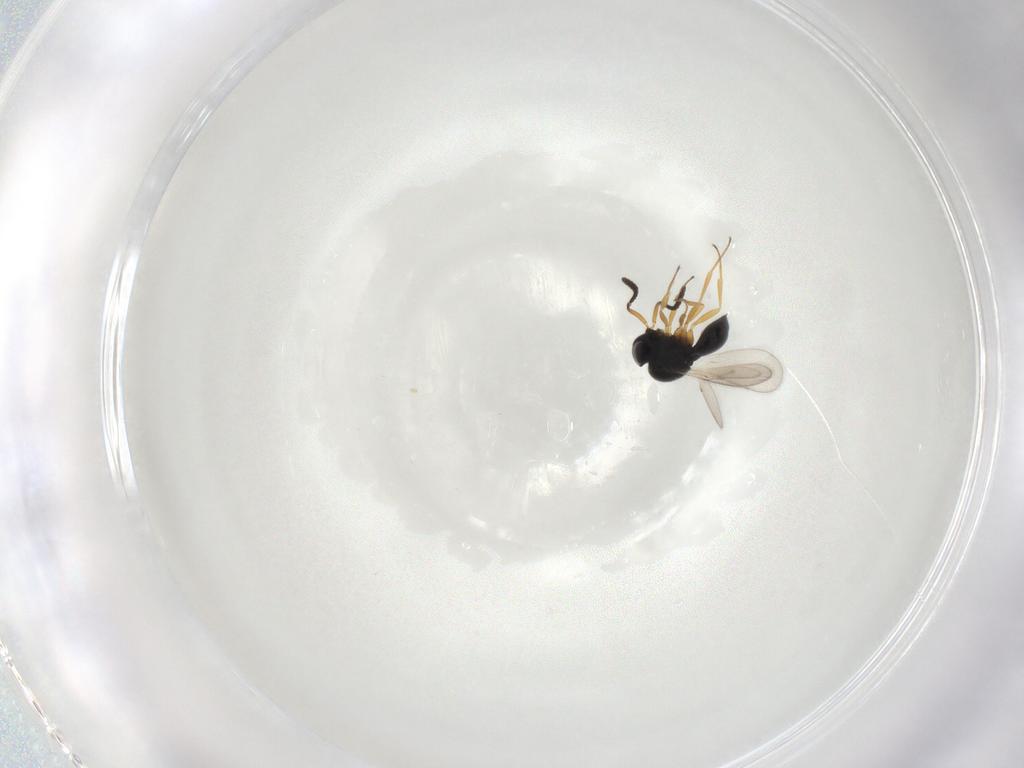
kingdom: Animalia
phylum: Arthropoda
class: Insecta
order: Hymenoptera
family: Scelionidae
